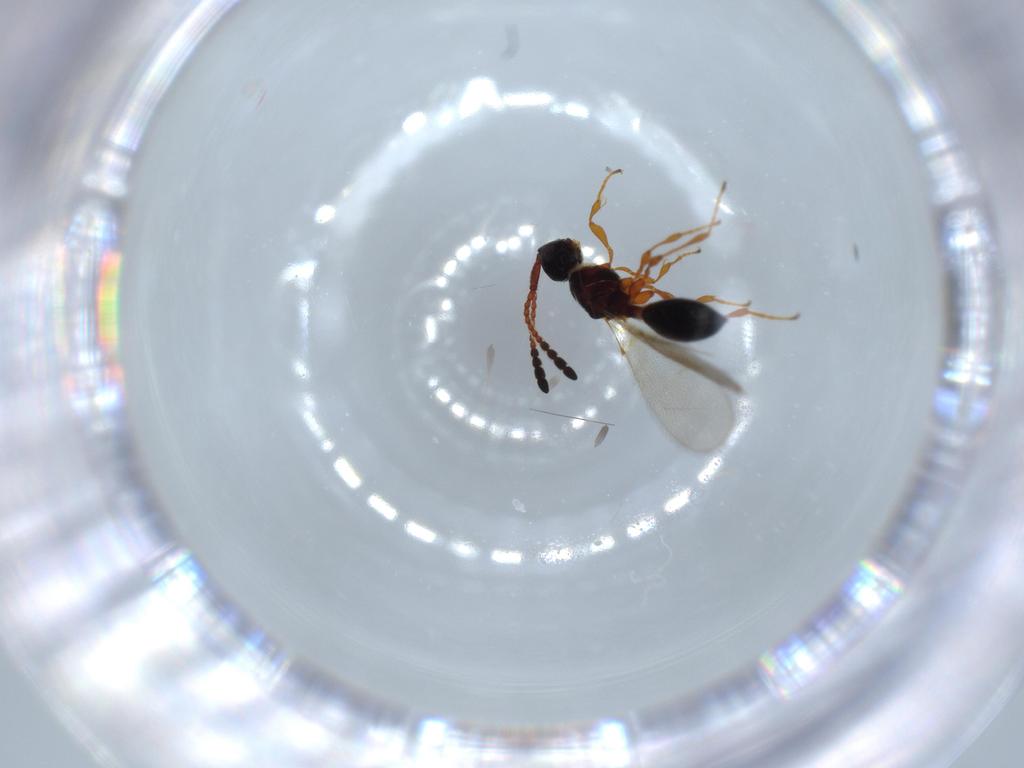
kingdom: Animalia
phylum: Arthropoda
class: Insecta
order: Hymenoptera
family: Diapriidae
